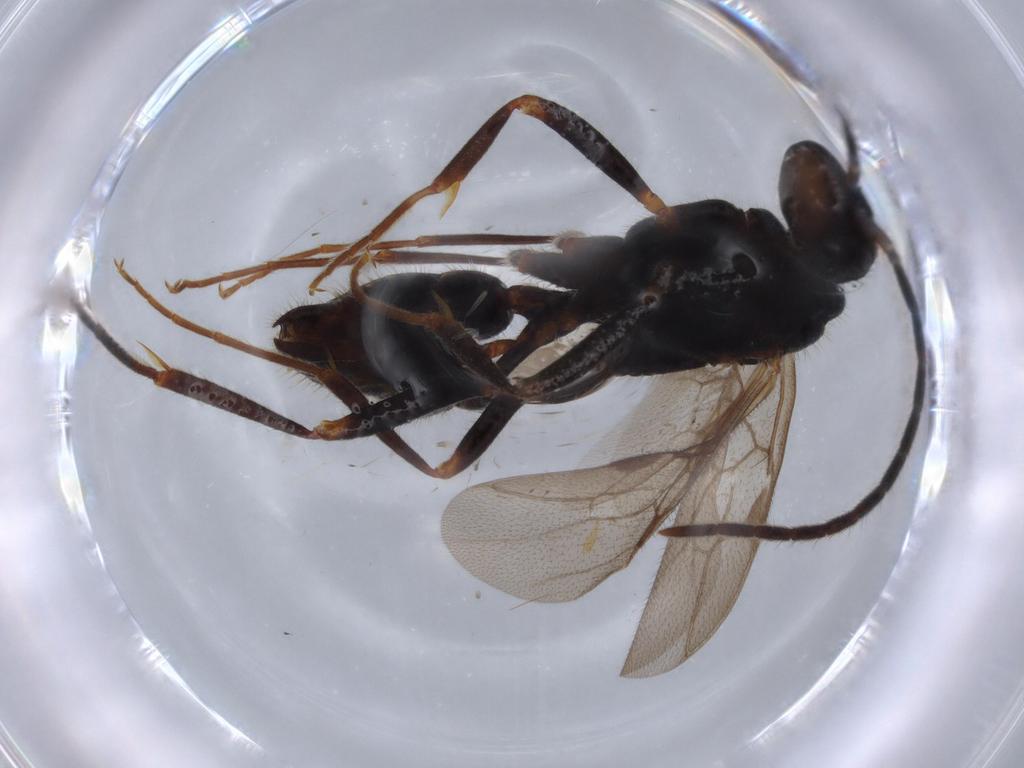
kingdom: Animalia
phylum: Arthropoda
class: Insecta
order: Hymenoptera
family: Formicidae
